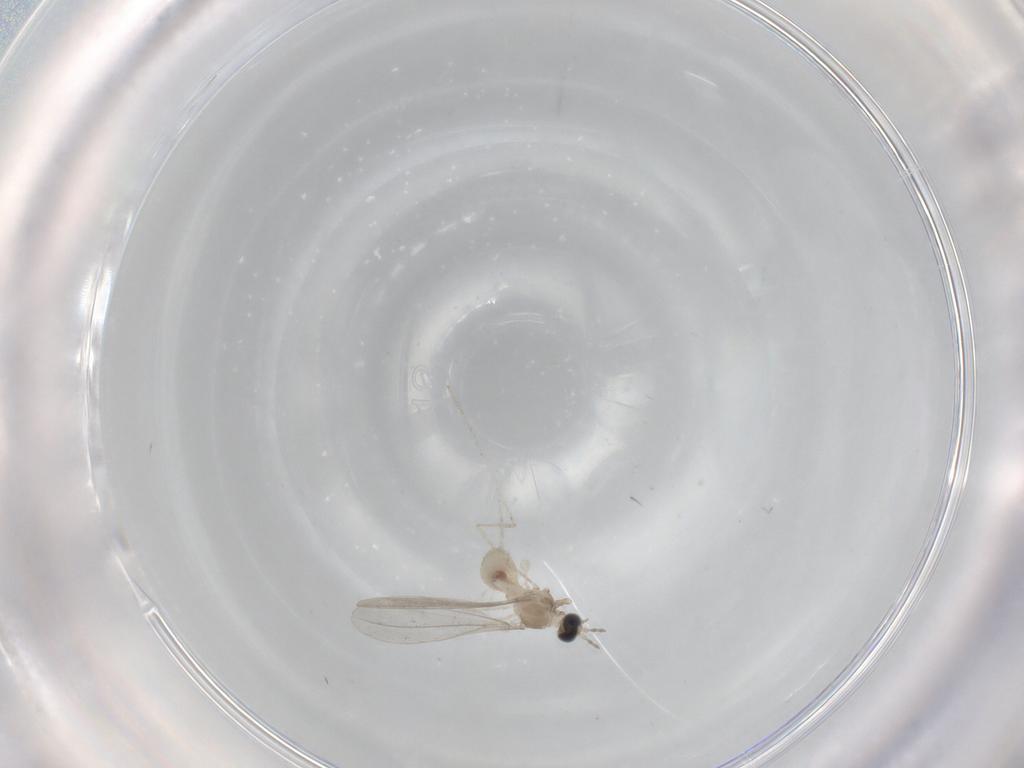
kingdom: Animalia
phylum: Arthropoda
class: Insecta
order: Diptera
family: Cecidomyiidae
